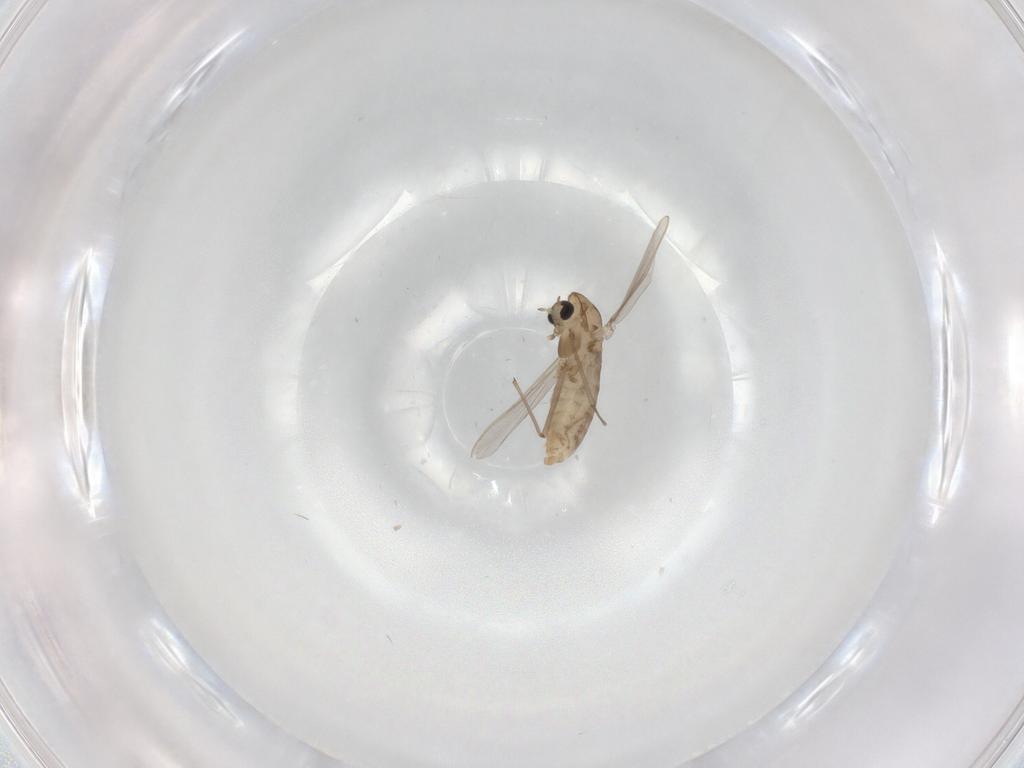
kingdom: Animalia
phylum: Arthropoda
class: Insecta
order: Diptera
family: Chironomidae
